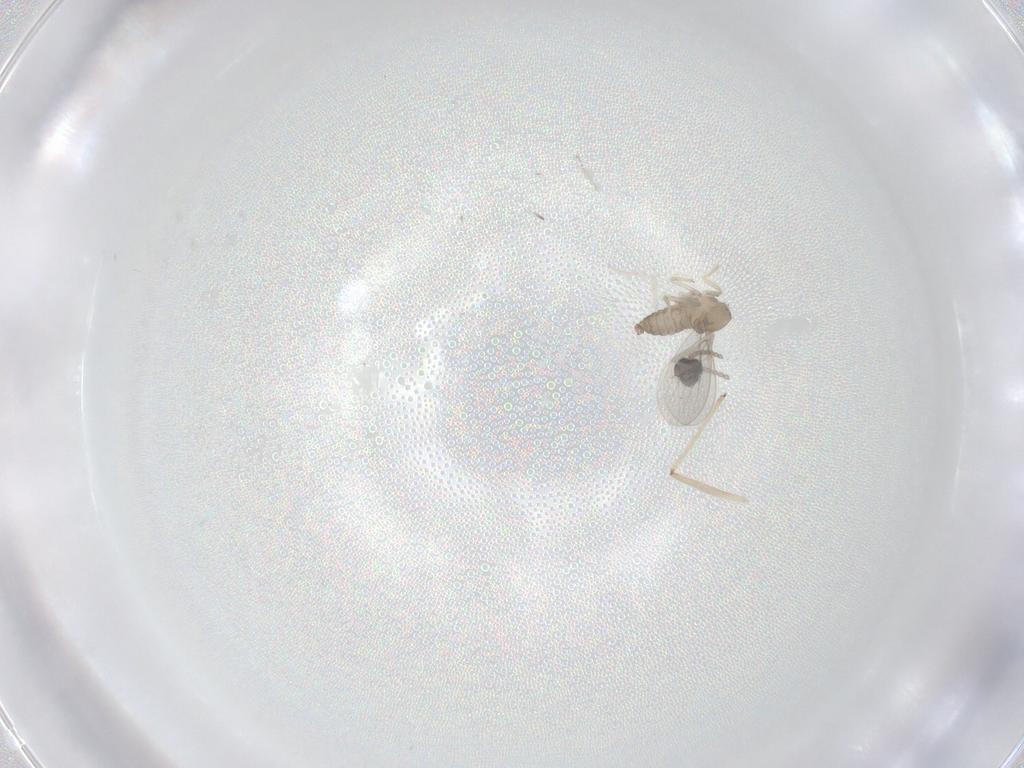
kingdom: Animalia
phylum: Arthropoda
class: Insecta
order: Diptera
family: Cecidomyiidae
